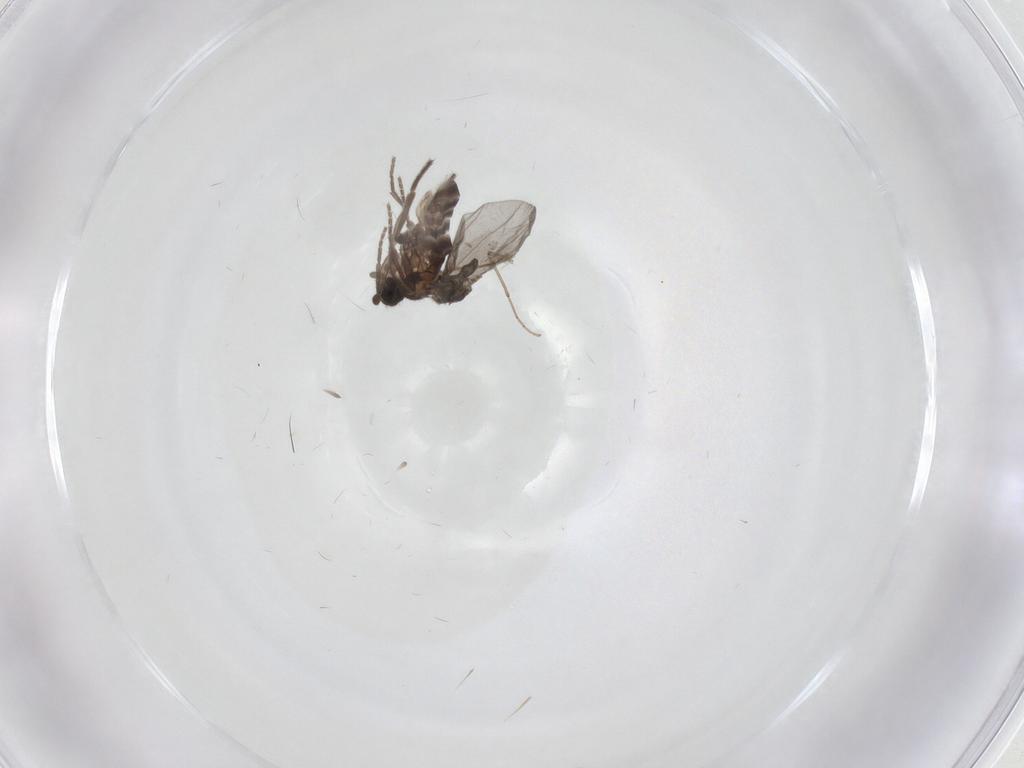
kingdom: Animalia
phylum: Arthropoda
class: Insecta
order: Diptera
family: Phoridae
